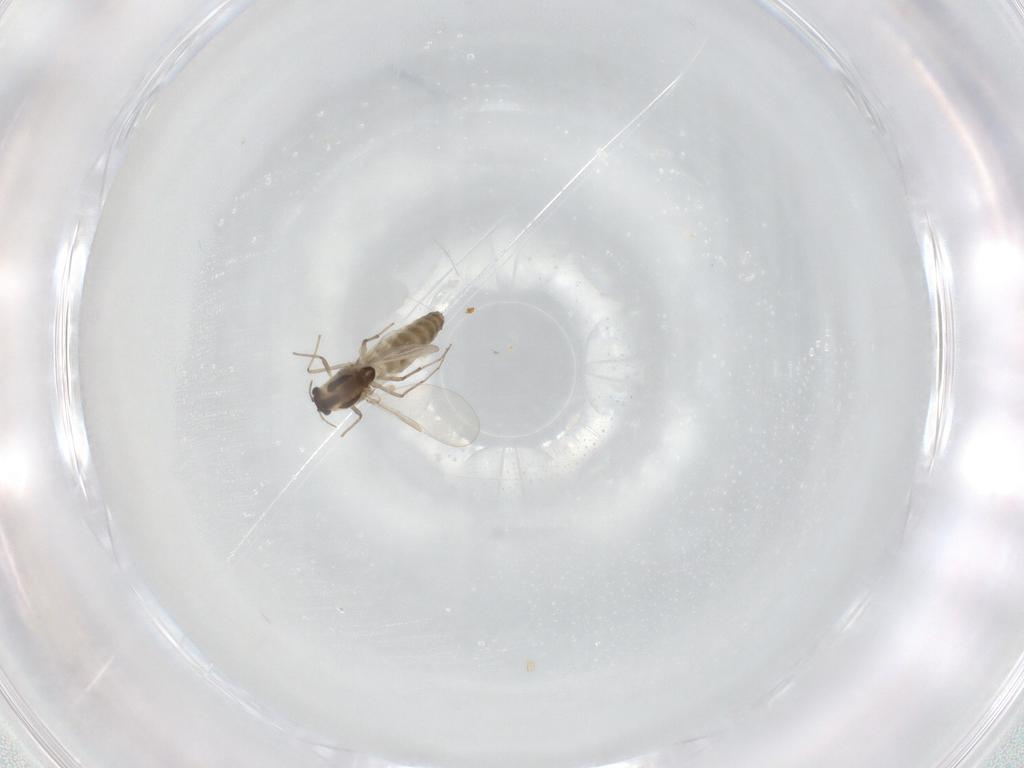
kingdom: Animalia
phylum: Arthropoda
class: Insecta
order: Diptera
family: Chironomidae
